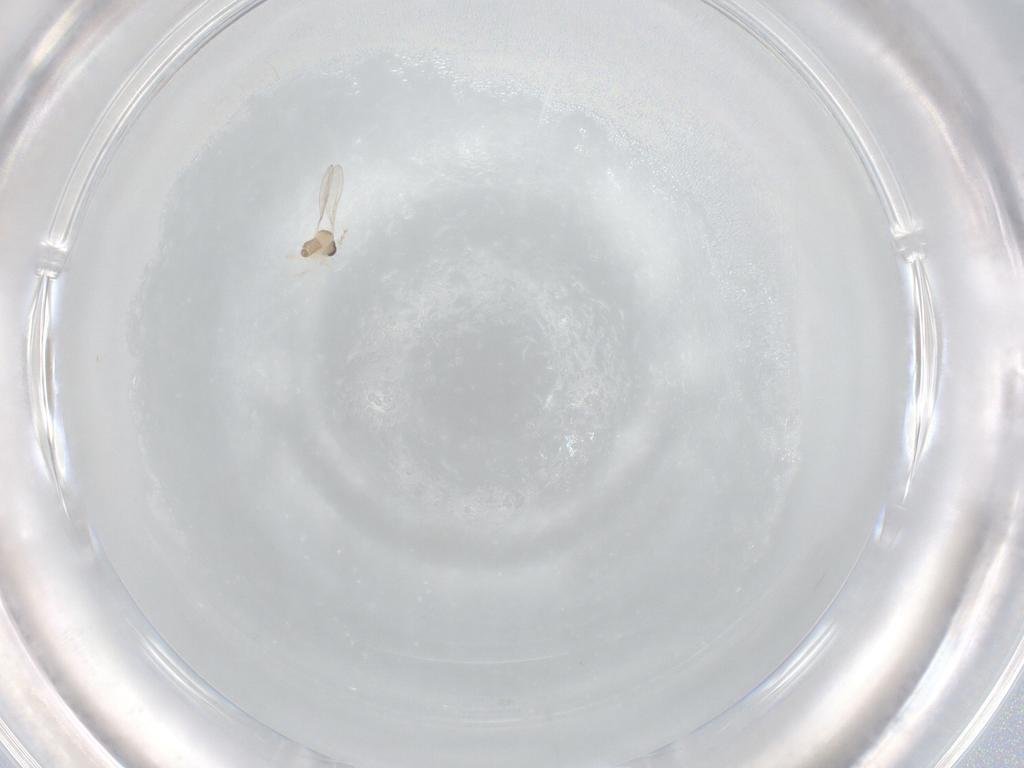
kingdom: Animalia
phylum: Arthropoda
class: Insecta
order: Diptera
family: Cecidomyiidae
